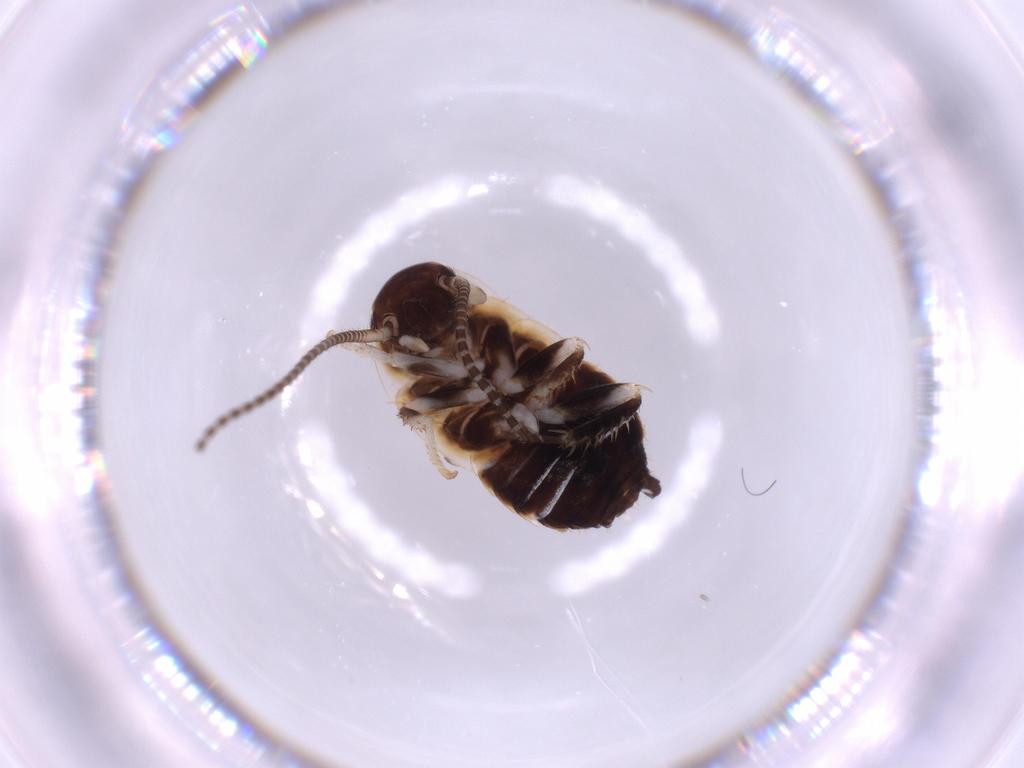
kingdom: Animalia
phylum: Arthropoda
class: Insecta
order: Blattodea
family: Ectobiidae
